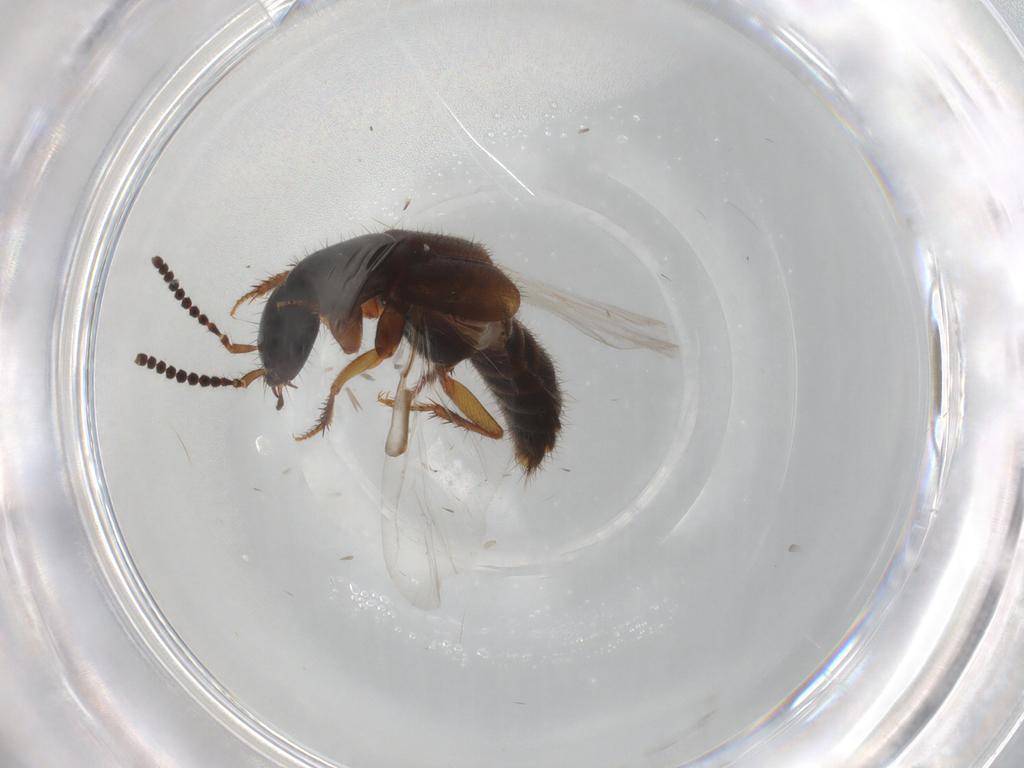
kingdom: Animalia
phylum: Arthropoda
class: Insecta
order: Coleoptera
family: Staphylinidae
